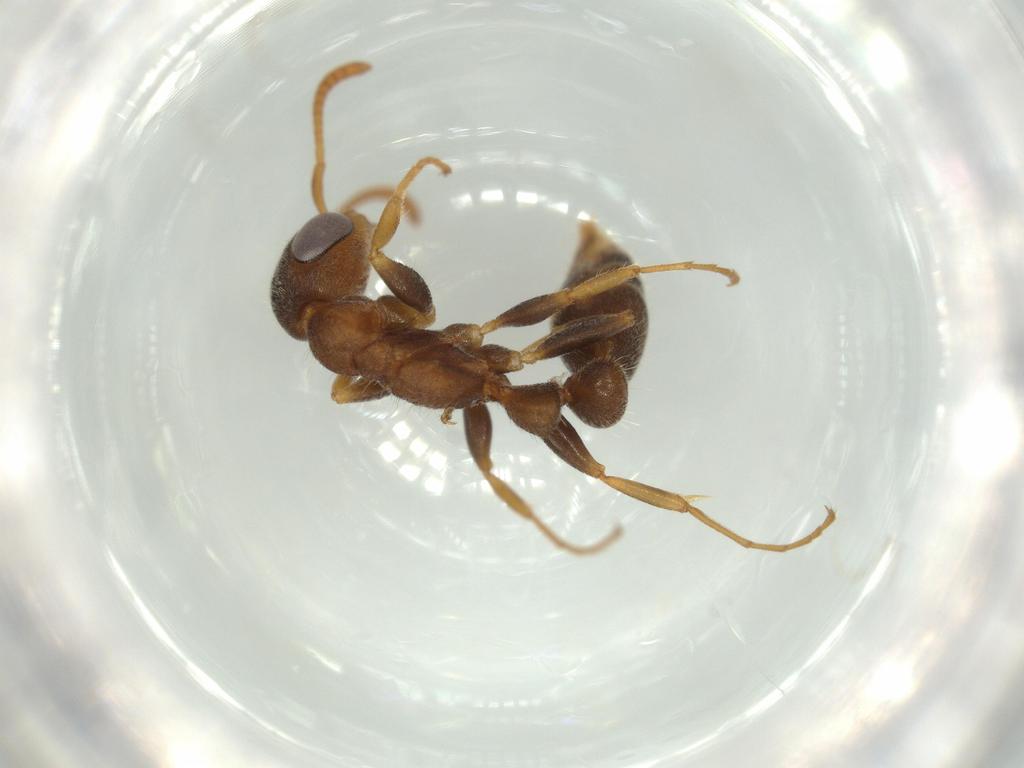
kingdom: Animalia
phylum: Arthropoda
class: Insecta
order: Hymenoptera
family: Formicidae
